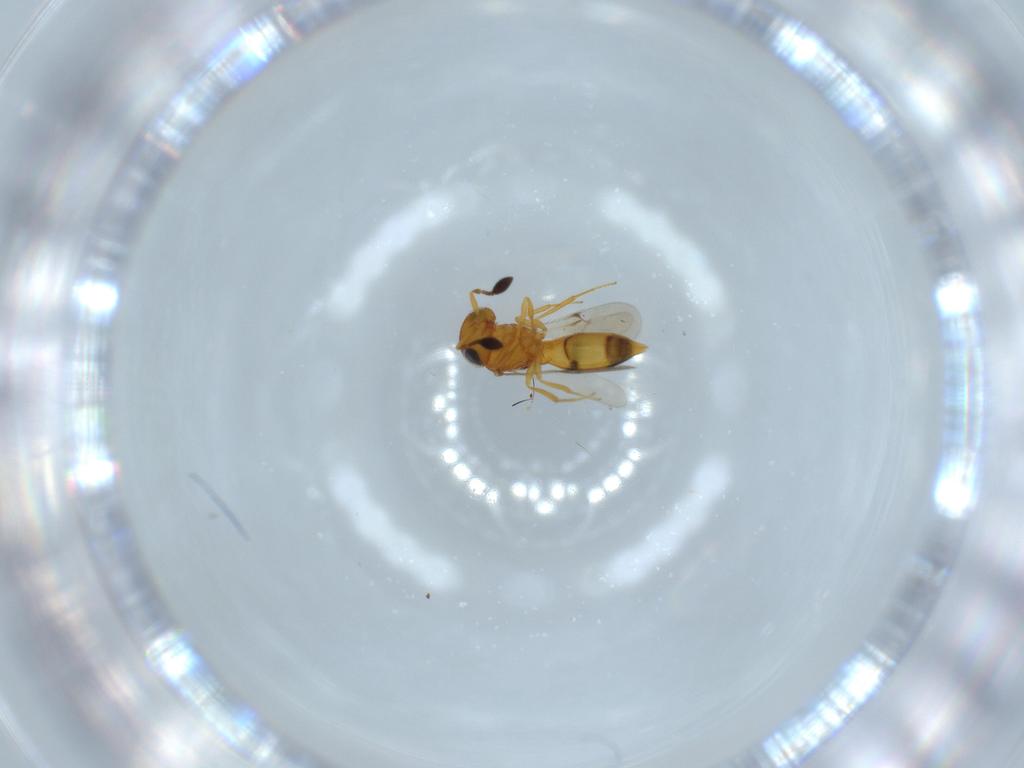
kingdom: Animalia
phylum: Arthropoda
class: Insecta
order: Hymenoptera
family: Scelionidae
